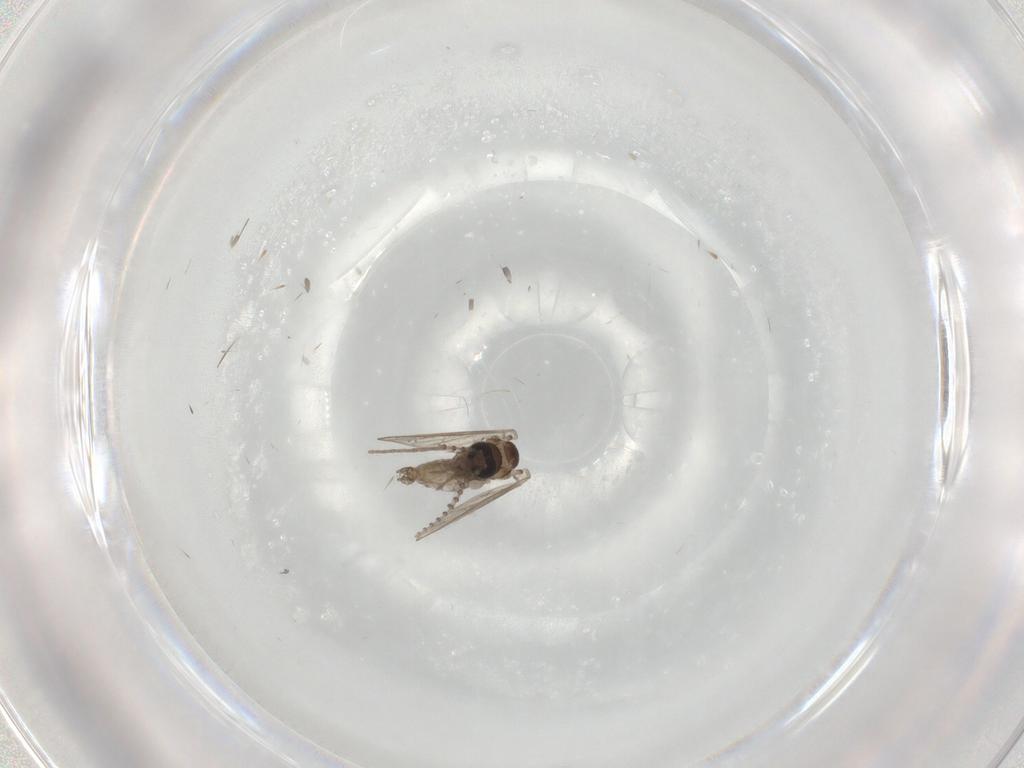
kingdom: Animalia
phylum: Arthropoda
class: Insecta
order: Diptera
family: Psychodidae
